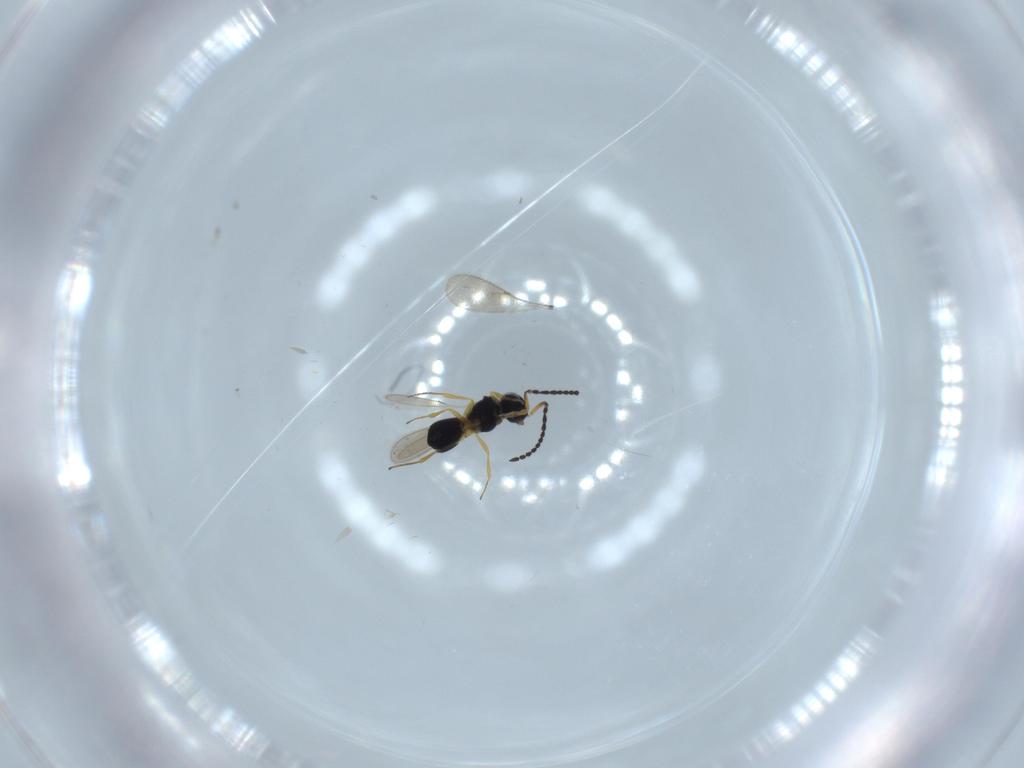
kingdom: Animalia
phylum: Arthropoda
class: Insecta
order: Hymenoptera
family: Scelionidae
